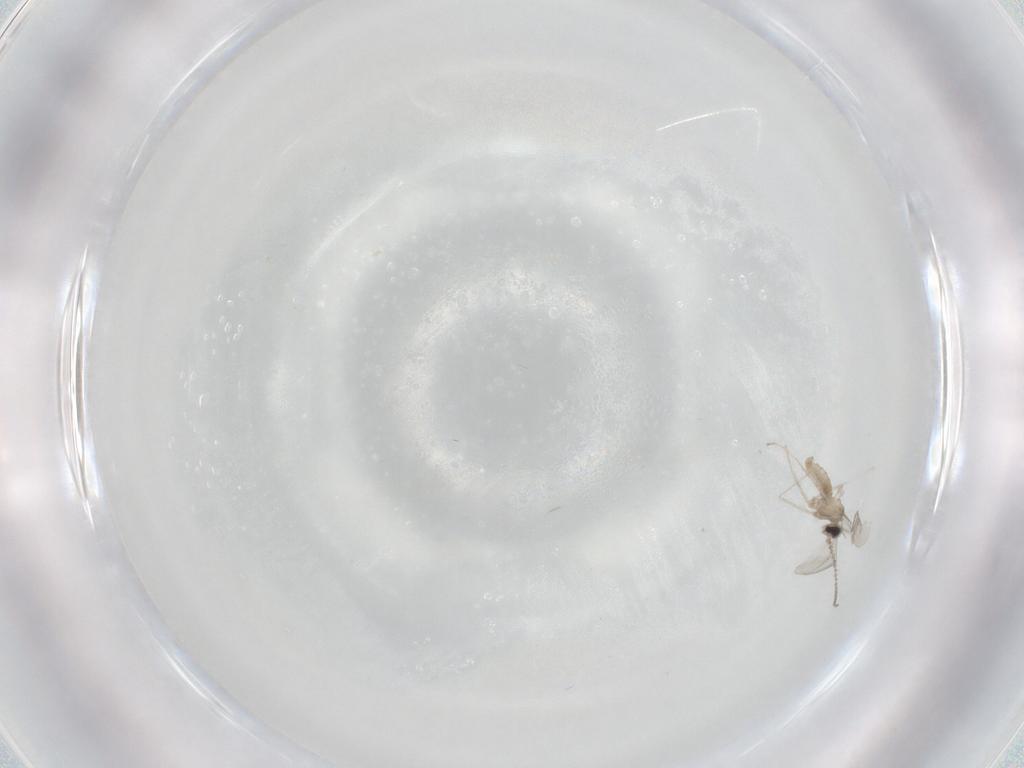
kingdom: Animalia
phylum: Arthropoda
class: Insecta
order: Diptera
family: Cecidomyiidae
